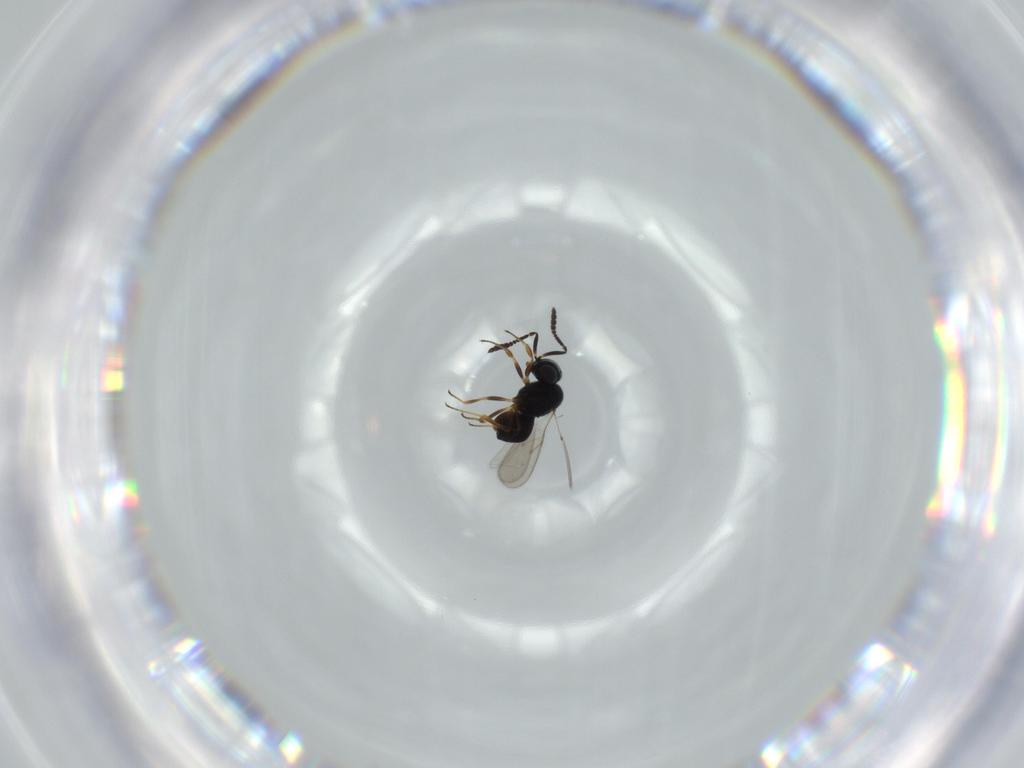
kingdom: Animalia
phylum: Arthropoda
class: Insecta
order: Hymenoptera
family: Scelionidae
